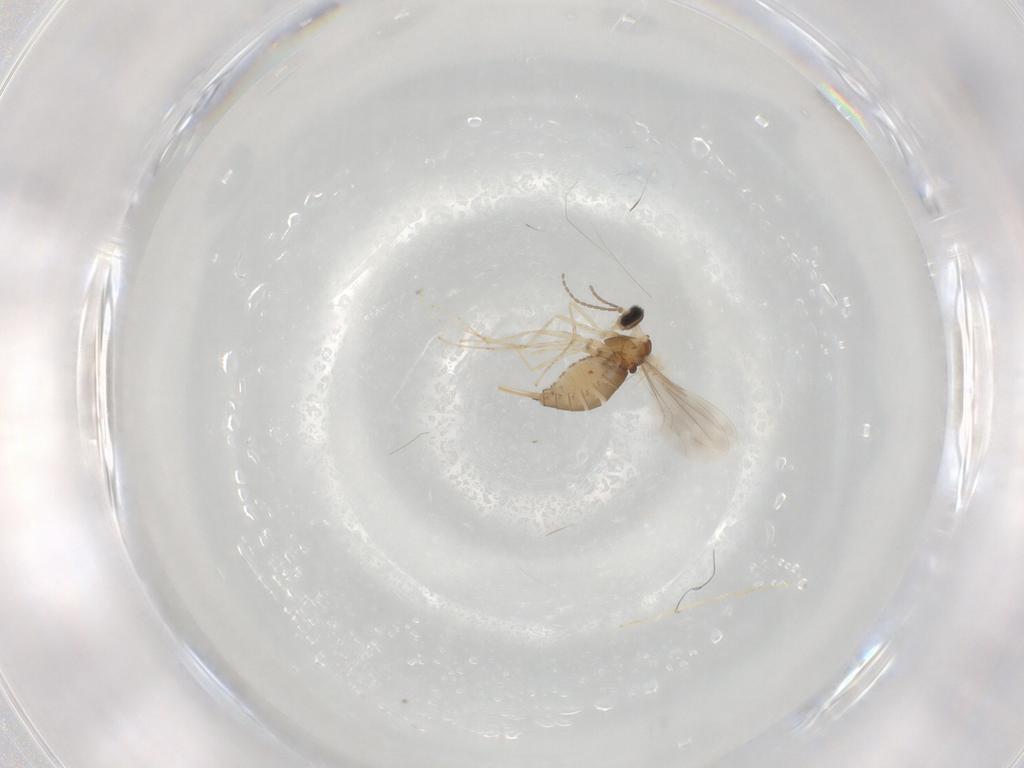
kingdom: Animalia
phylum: Arthropoda
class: Insecta
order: Diptera
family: Cecidomyiidae
